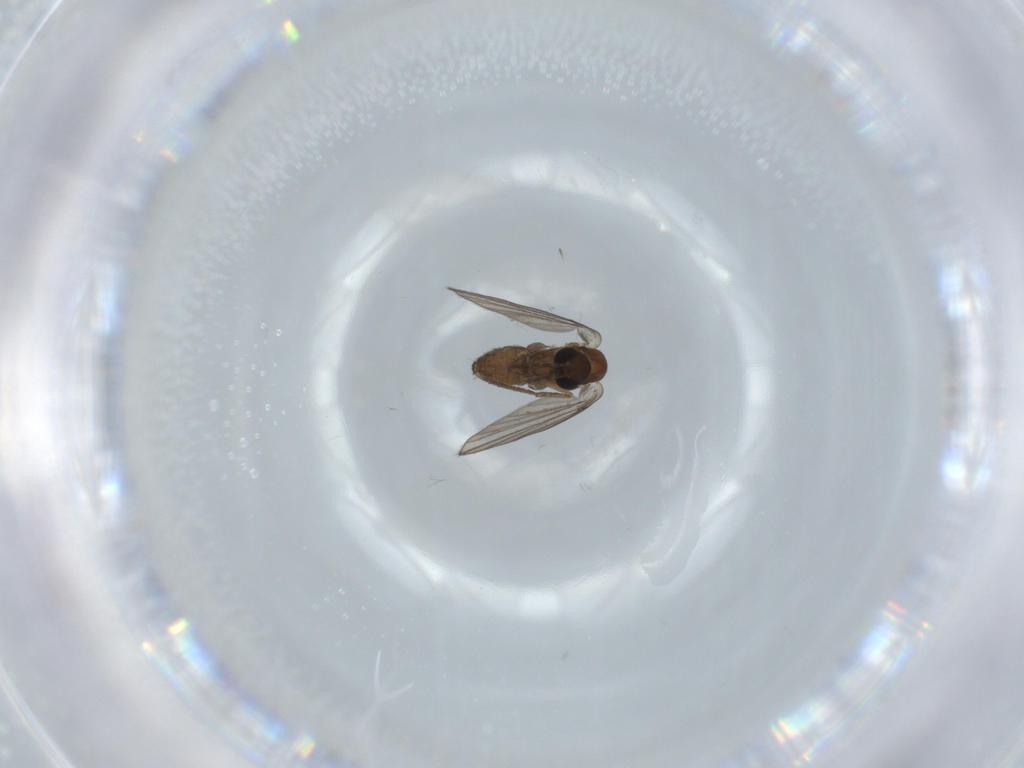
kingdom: Animalia
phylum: Arthropoda
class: Insecta
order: Diptera
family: Psychodidae
